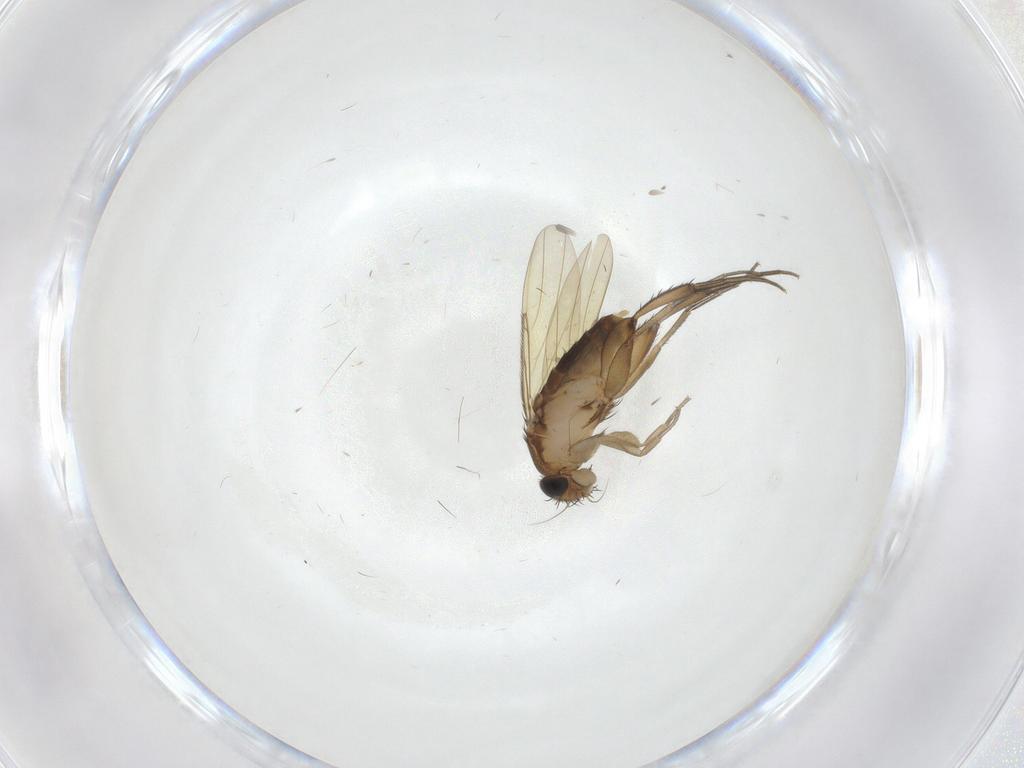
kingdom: Animalia
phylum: Arthropoda
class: Insecta
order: Diptera
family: Phoridae
